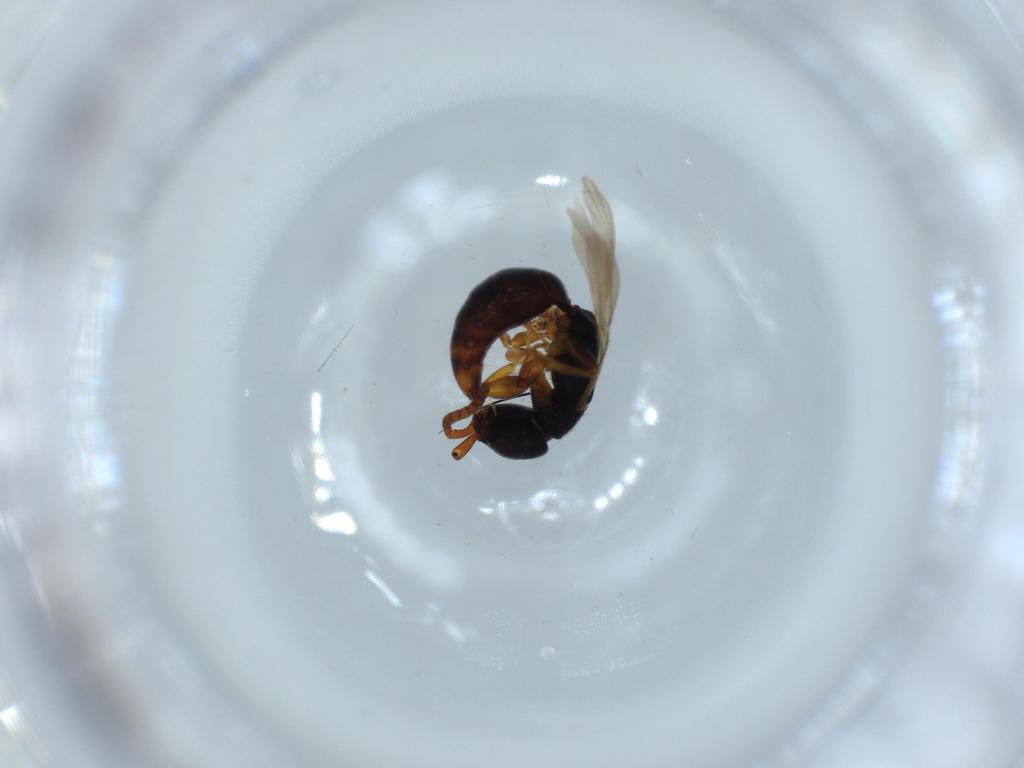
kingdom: Animalia
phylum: Arthropoda
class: Insecta
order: Hymenoptera
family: Bethylidae
